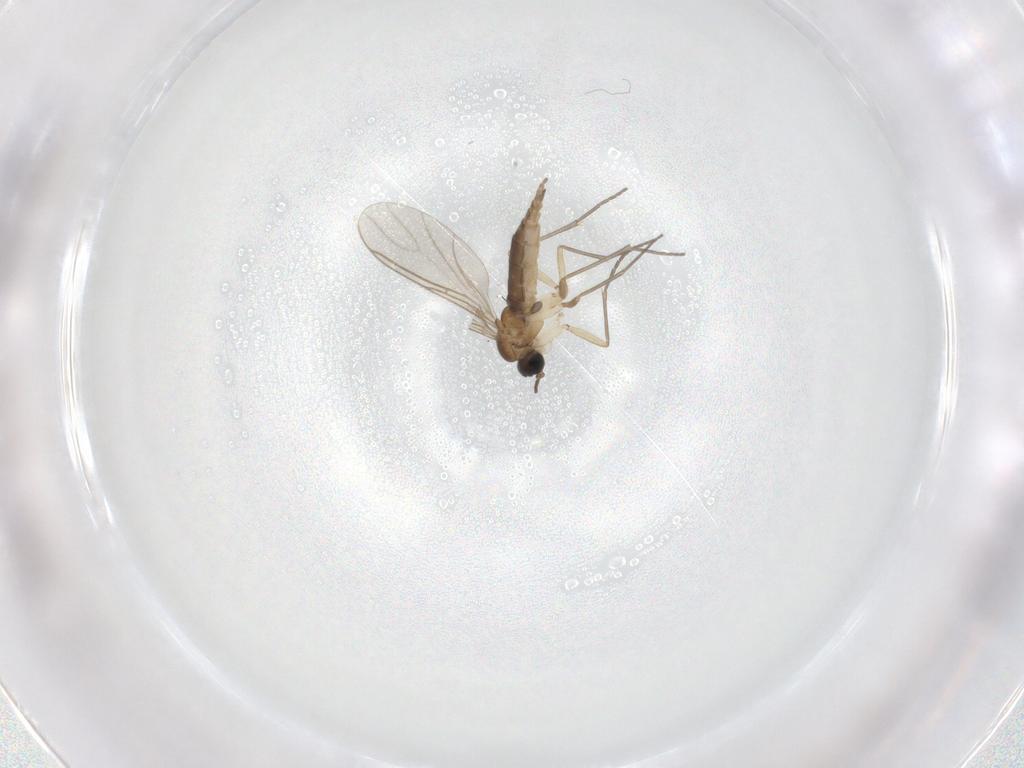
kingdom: Animalia
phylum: Arthropoda
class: Insecta
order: Diptera
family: Sciaridae
